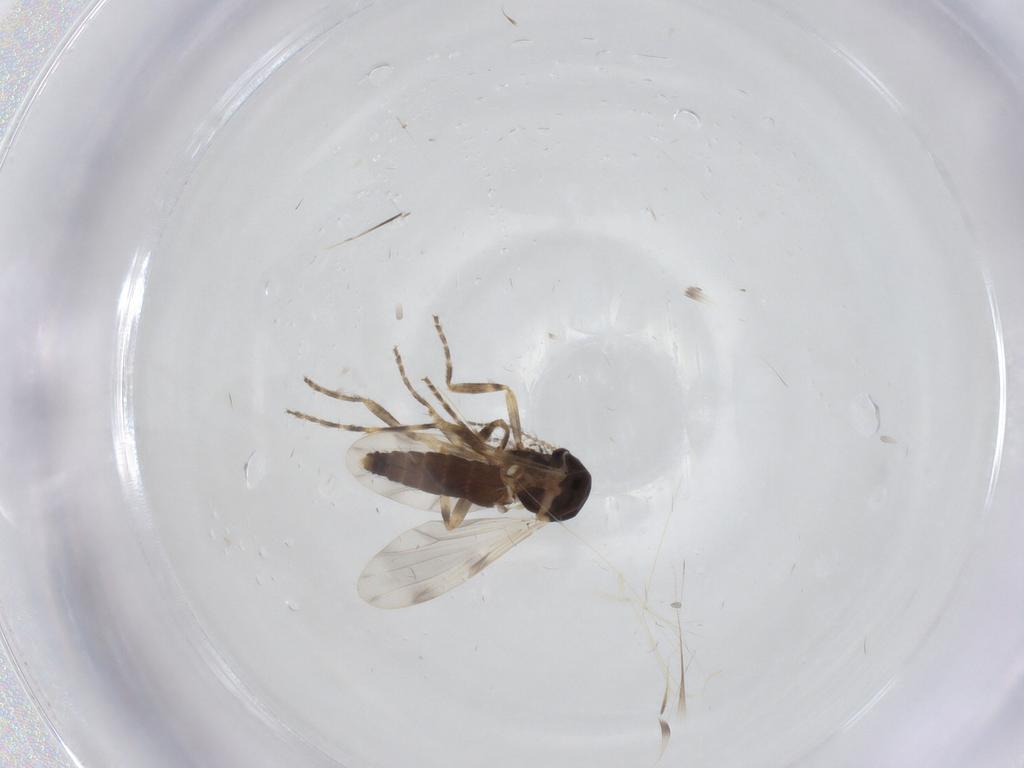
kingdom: Animalia
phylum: Arthropoda
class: Insecta
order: Diptera
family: Ceratopogonidae
